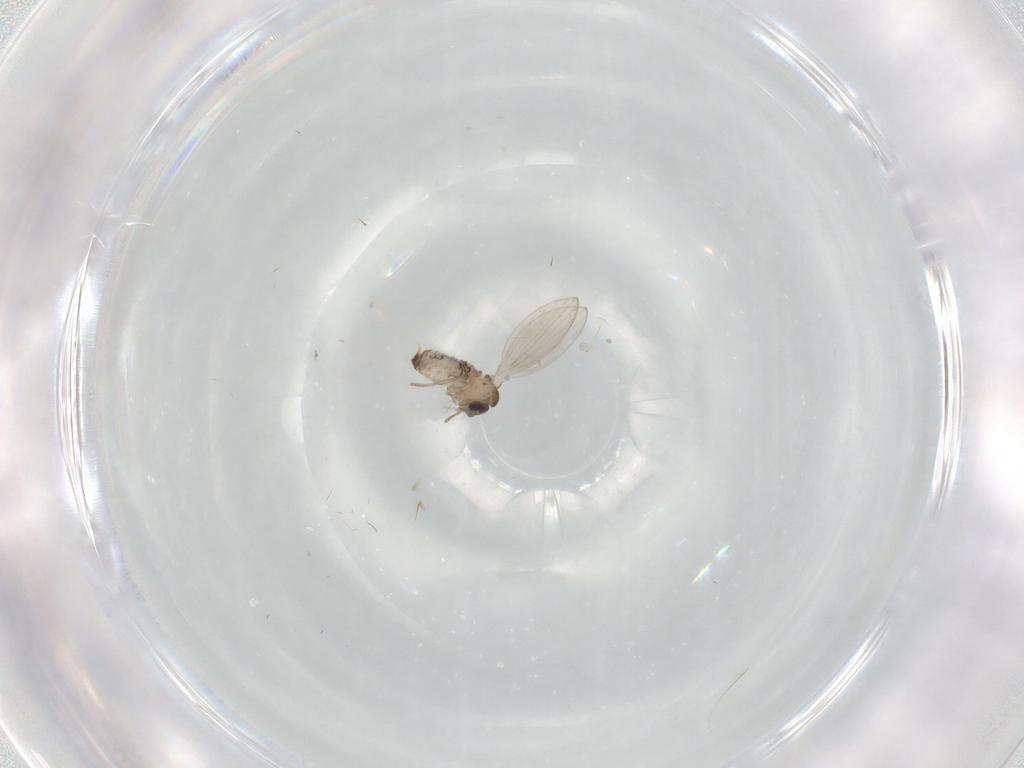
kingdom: Animalia
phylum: Arthropoda
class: Insecta
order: Diptera
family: Psychodidae
